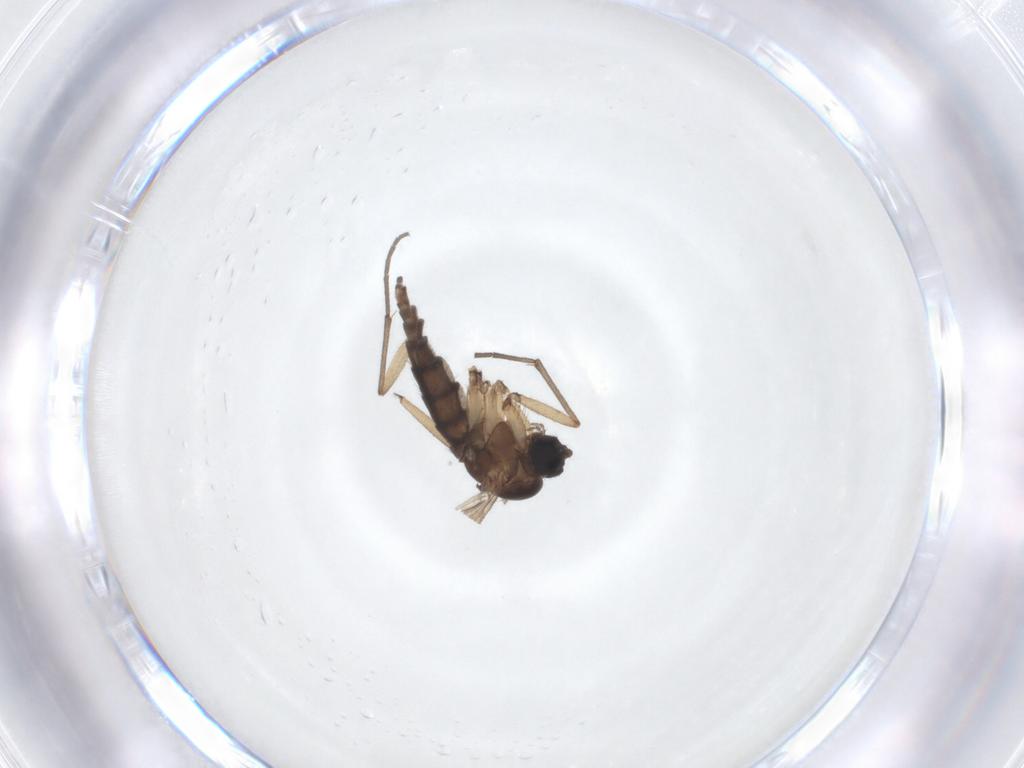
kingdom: Animalia
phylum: Arthropoda
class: Insecta
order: Diptera
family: Sciaridae
